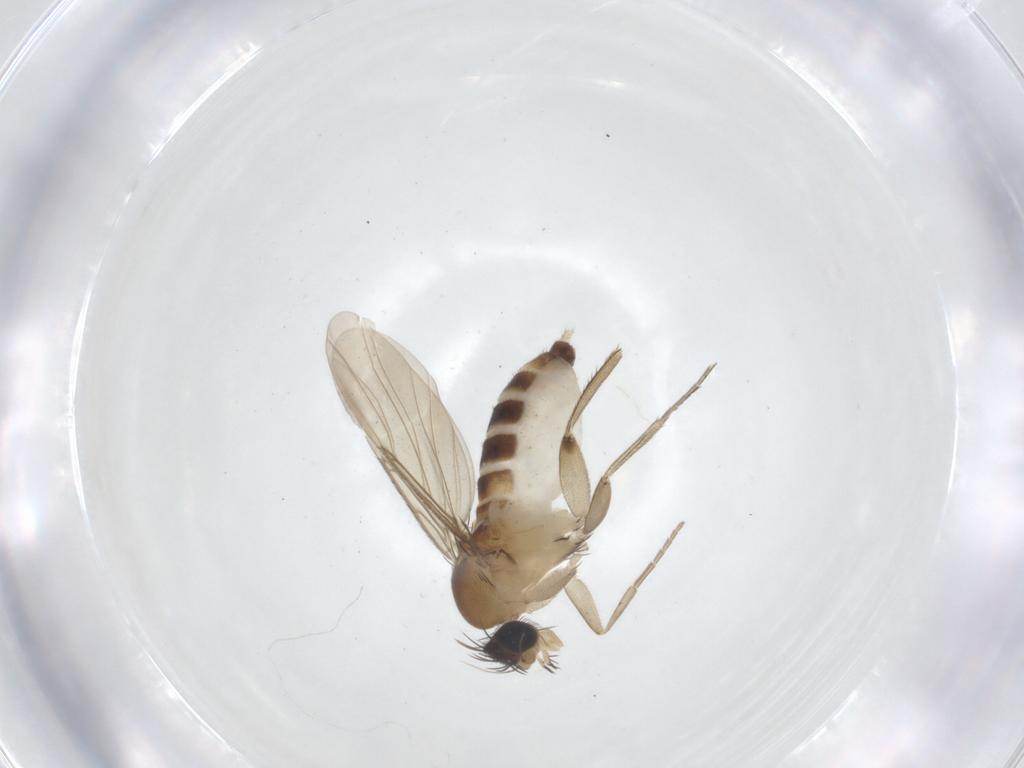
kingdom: Animalia
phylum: Arthropoda
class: Insecta
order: Diptera
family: Phoridae
